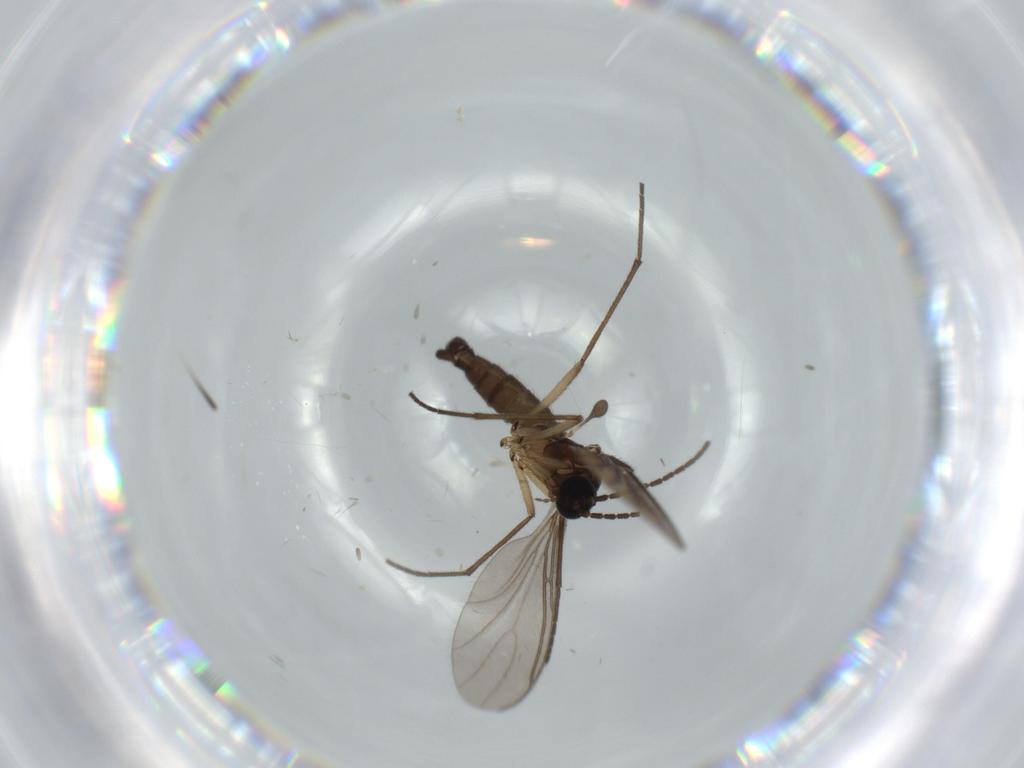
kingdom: Animalia
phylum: Arthropoda
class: Insecta
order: Diptera
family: Sciaridae
